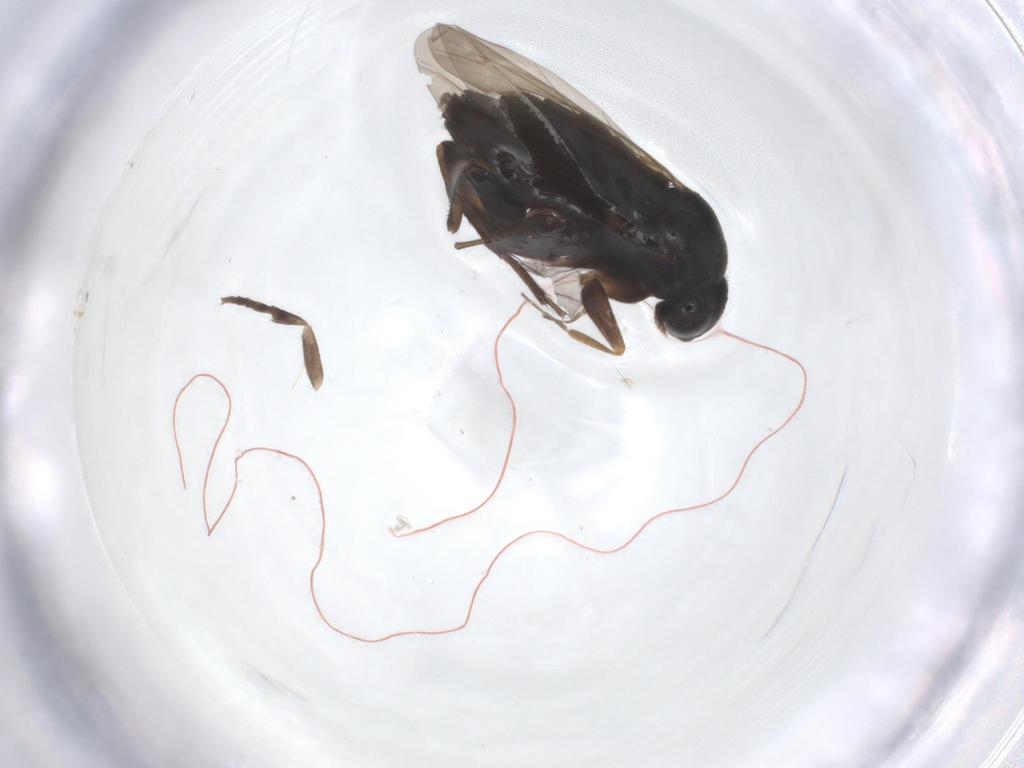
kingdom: Animalia
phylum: Arthropoda
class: Insecta
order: Diptera
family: Phoridae
